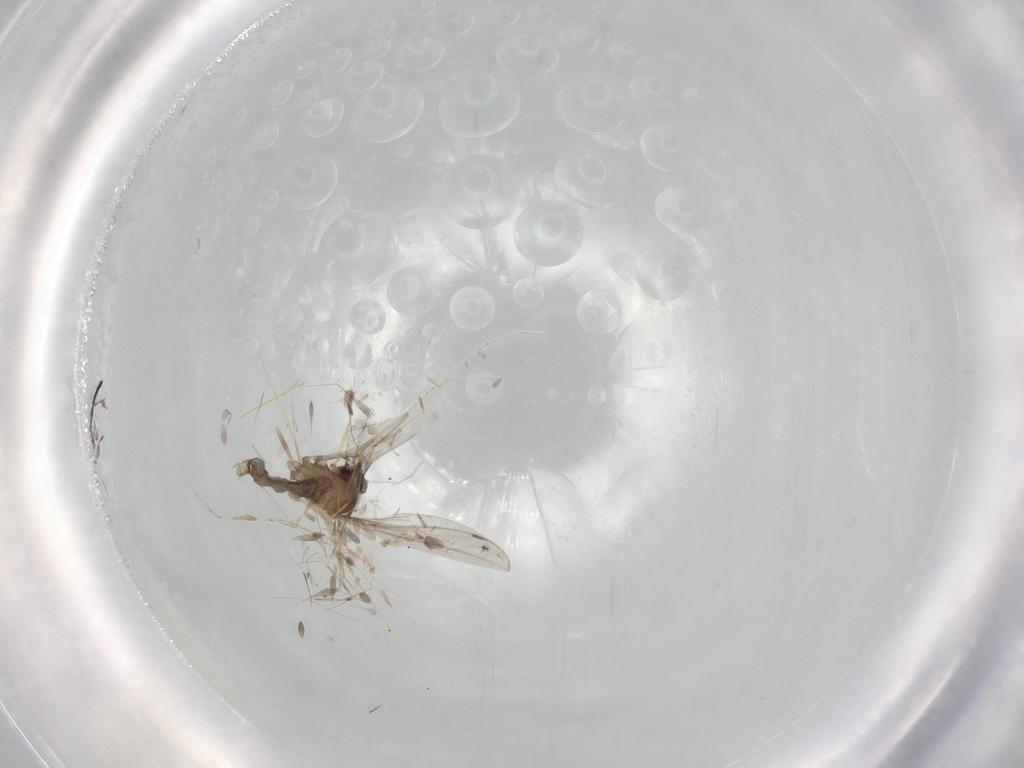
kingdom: Animalia
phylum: Arthropoda
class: Insecta
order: Diptera
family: Cecidomyiidae
